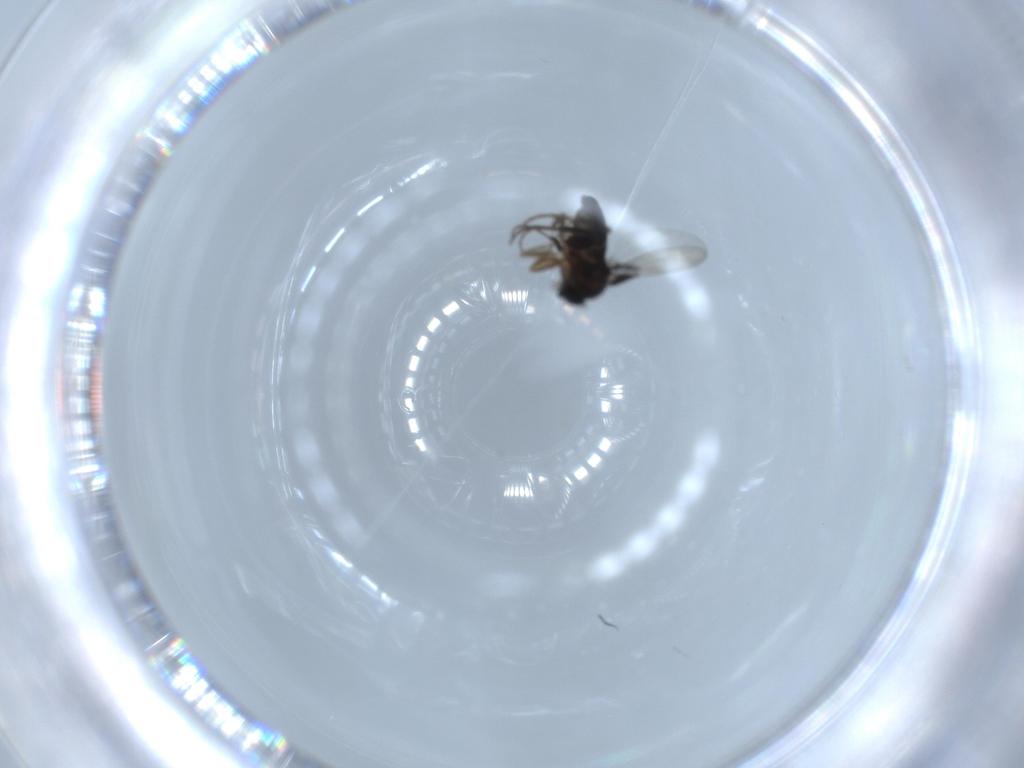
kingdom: Animalia
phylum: Arthropoda
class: Insecta
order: Diptera
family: Phoridae
